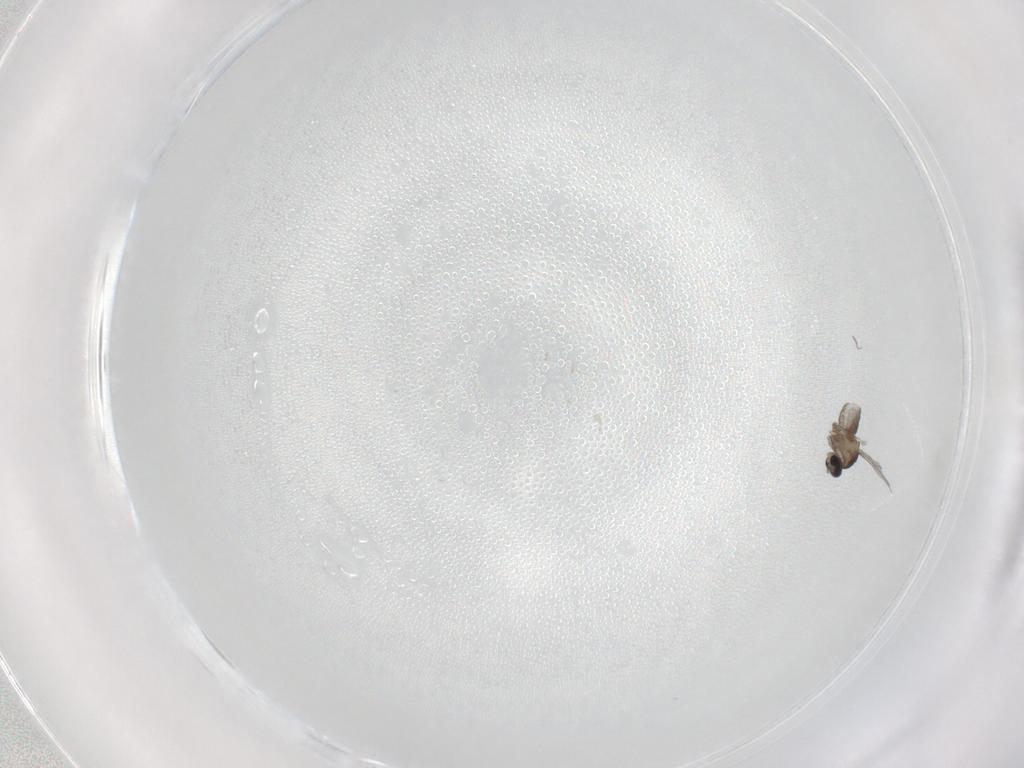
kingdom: Animalia
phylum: Arthropoda
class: Insecta
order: Diptera
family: Cecidomyiidae
